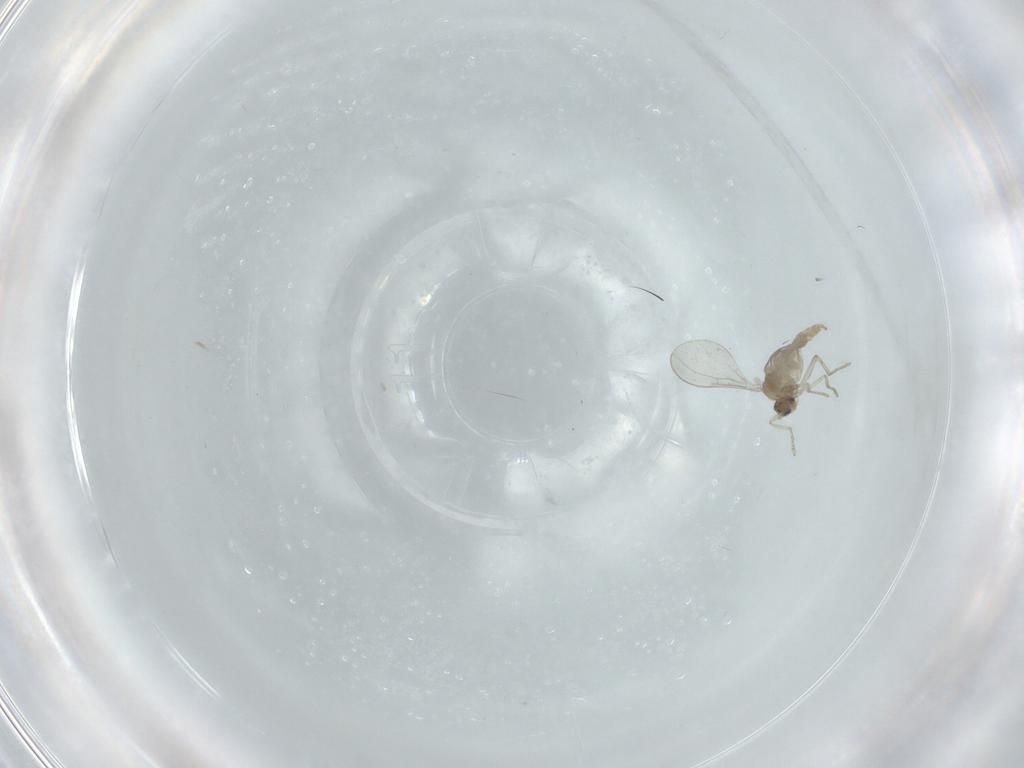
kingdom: Animalia
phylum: Arthropoda
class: Insecta
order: Diptera
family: Cecidomyiidae
